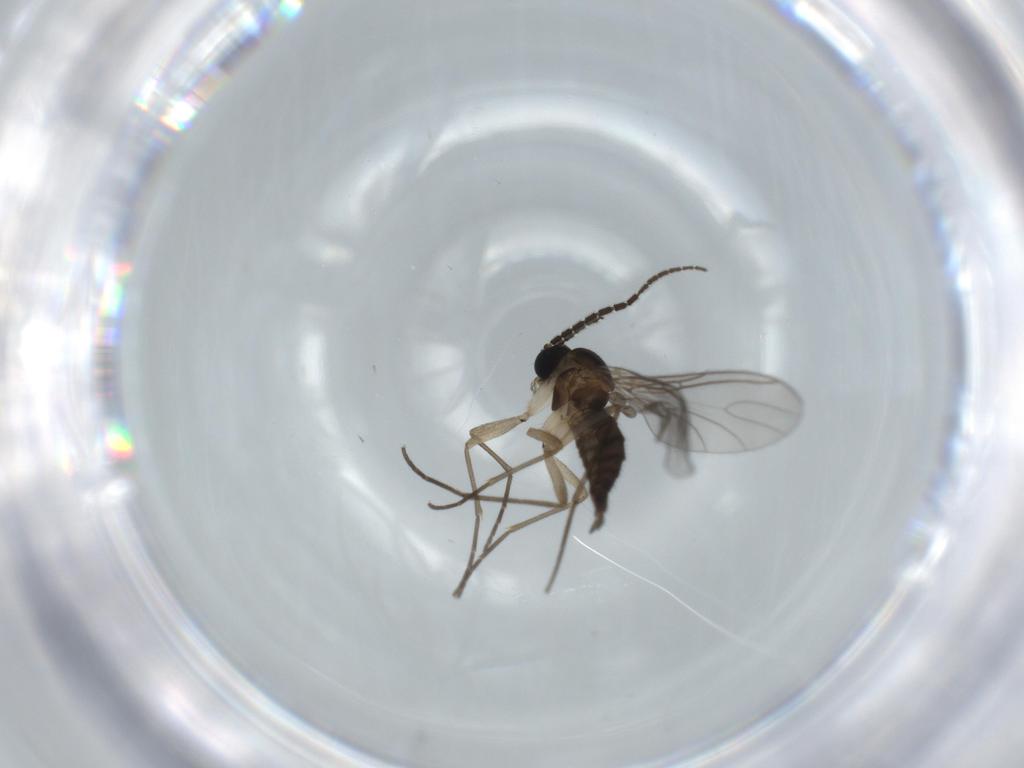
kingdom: Animalia
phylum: Arthropoda
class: Insecta
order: Diptera
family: Sciaridae
